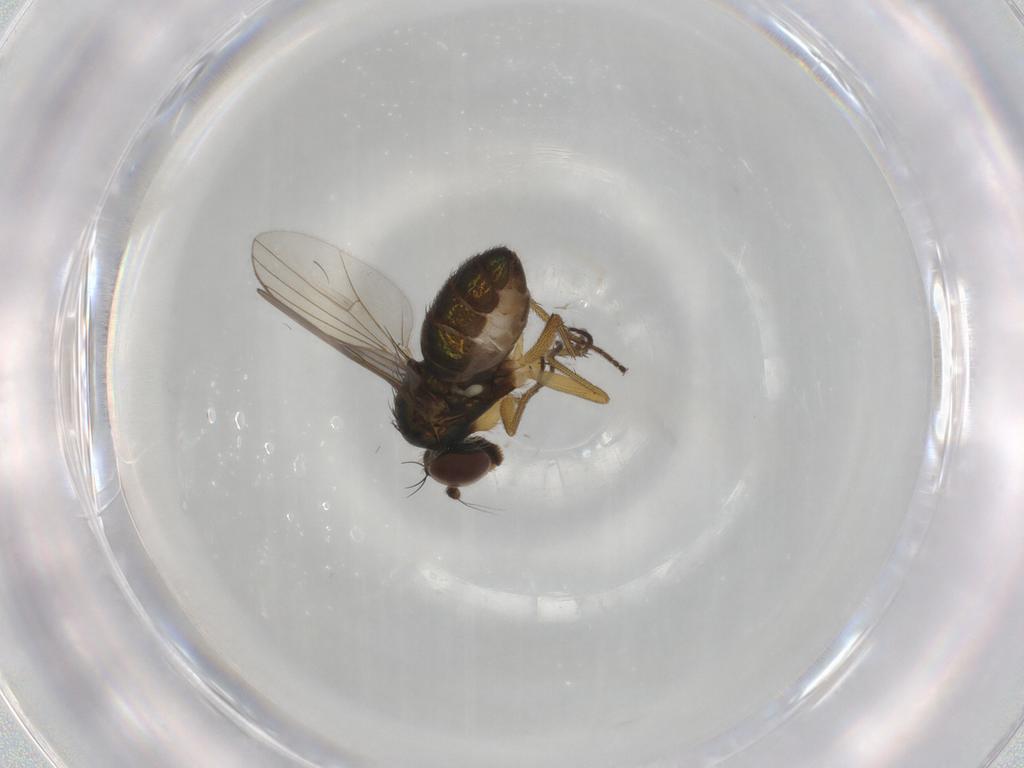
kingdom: Animalia
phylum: Arthropoda
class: Insecta
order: Diptera
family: Dolichopodidae
